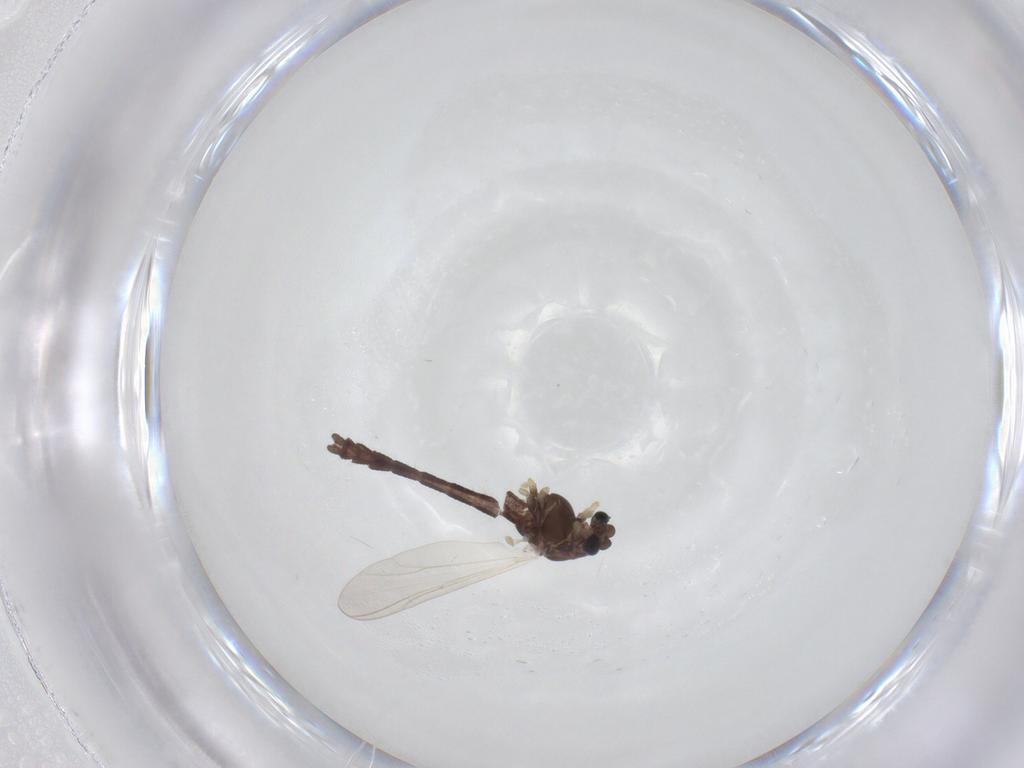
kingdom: Animalia
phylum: Arthropoda
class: Insecta
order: Diptera
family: Chironomidae
